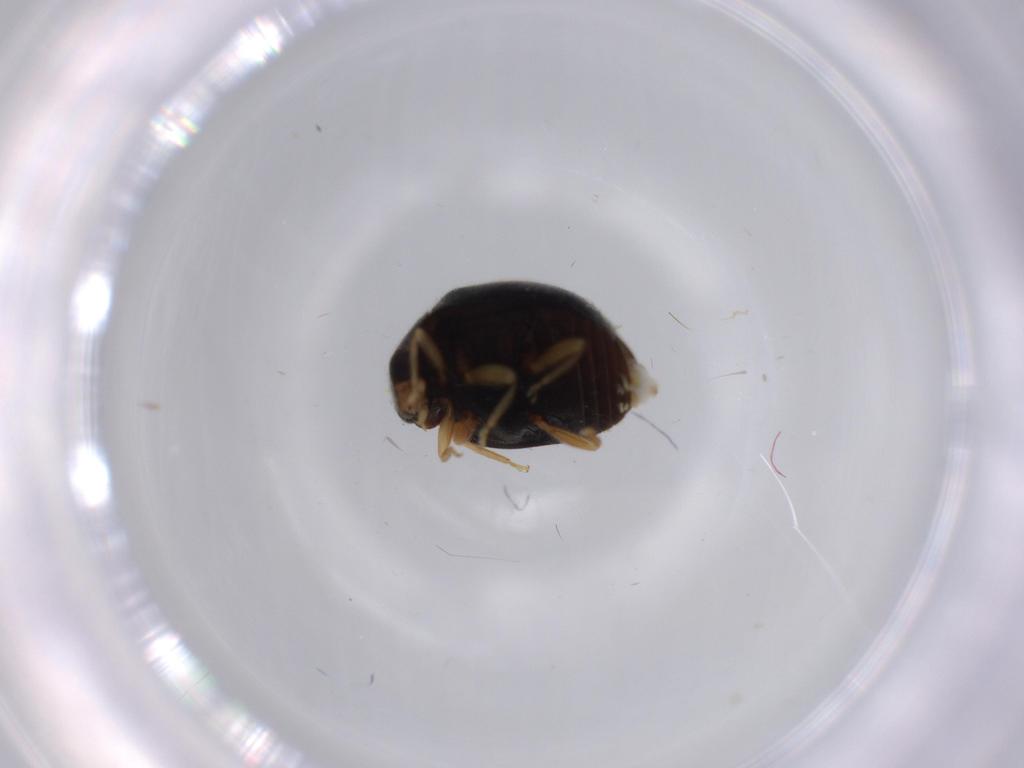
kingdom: Animalia
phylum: Arthropoda
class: Insecta
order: Coleoptera
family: Coccinellidae
